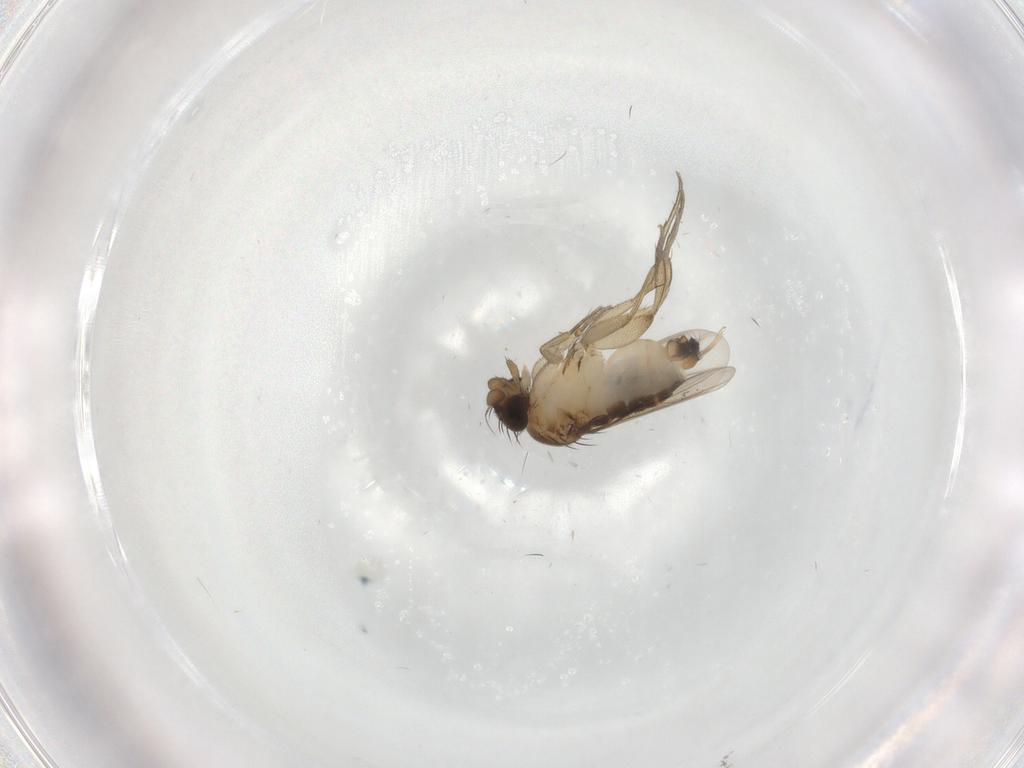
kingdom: Animalia
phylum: Arthropoda
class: Insecta
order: Diptera
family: Psychodidae
